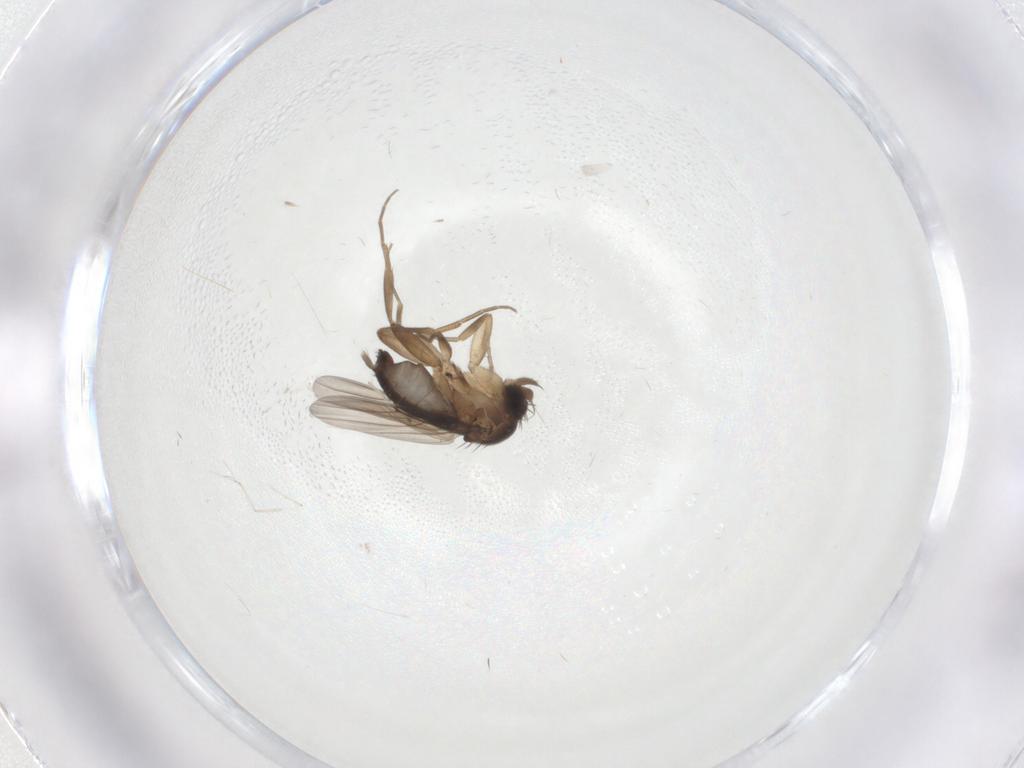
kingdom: Animalia
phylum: Arthropoda
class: Insecta
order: Diptera
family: Phoridae
